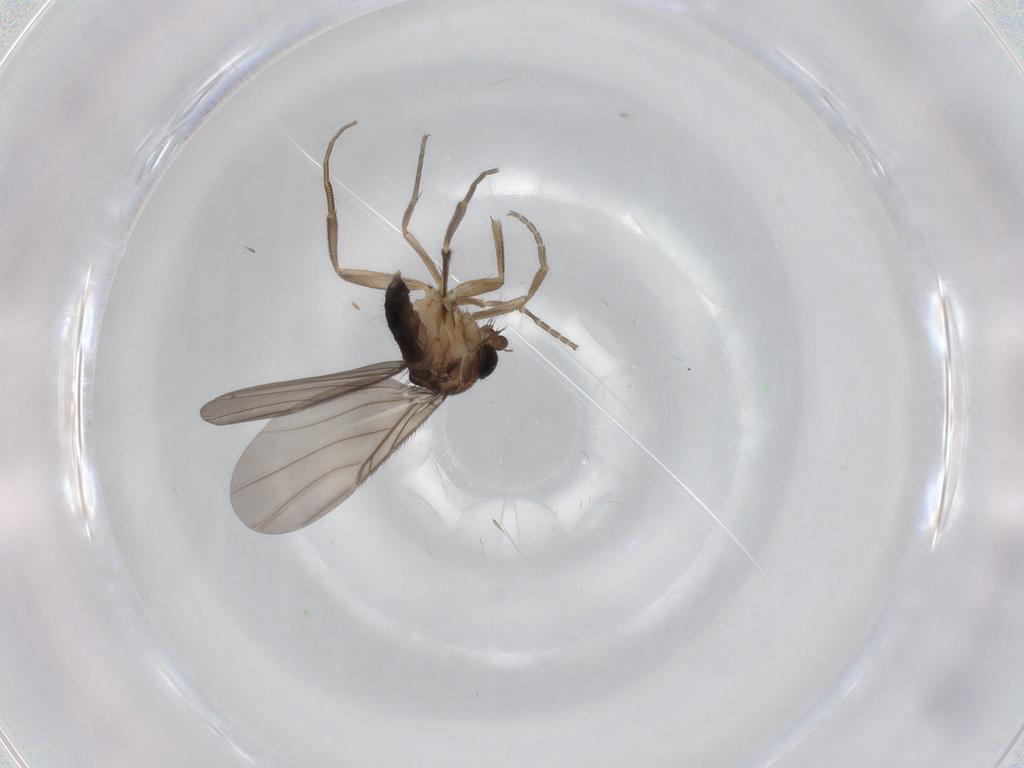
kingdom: Animalia
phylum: Arthropoda
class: Insecta
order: Diptera
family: Phoridae
